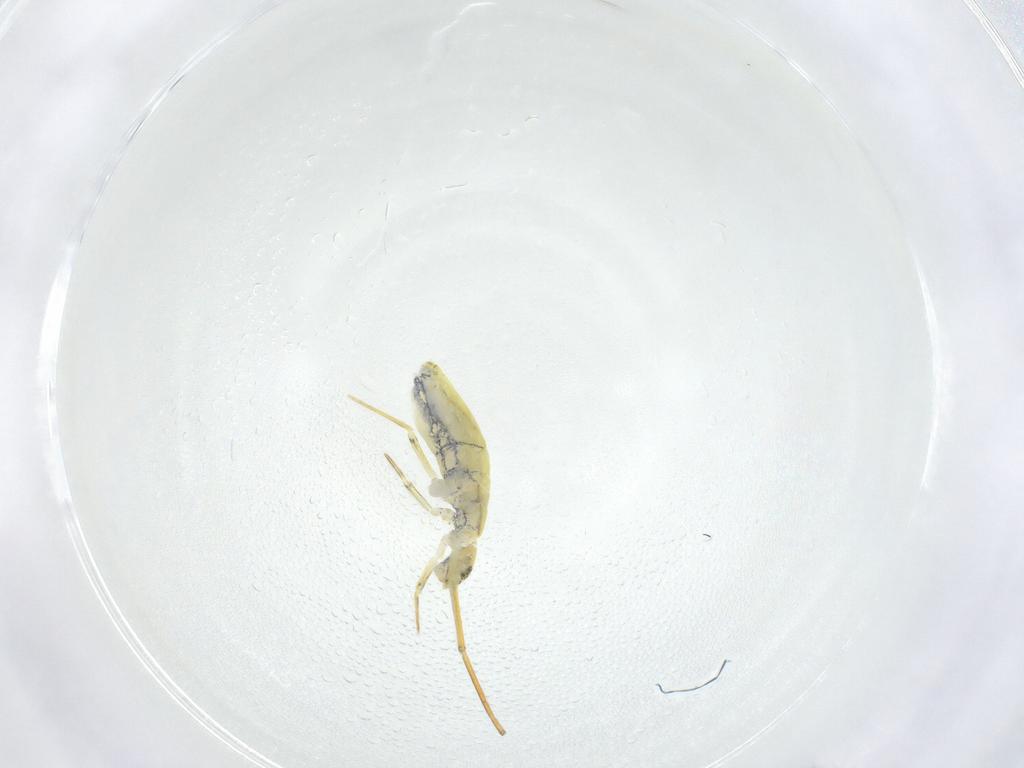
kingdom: Animalia
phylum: Arthropoda
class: Collembola
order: Entomobryomorpha
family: Paronellidae
